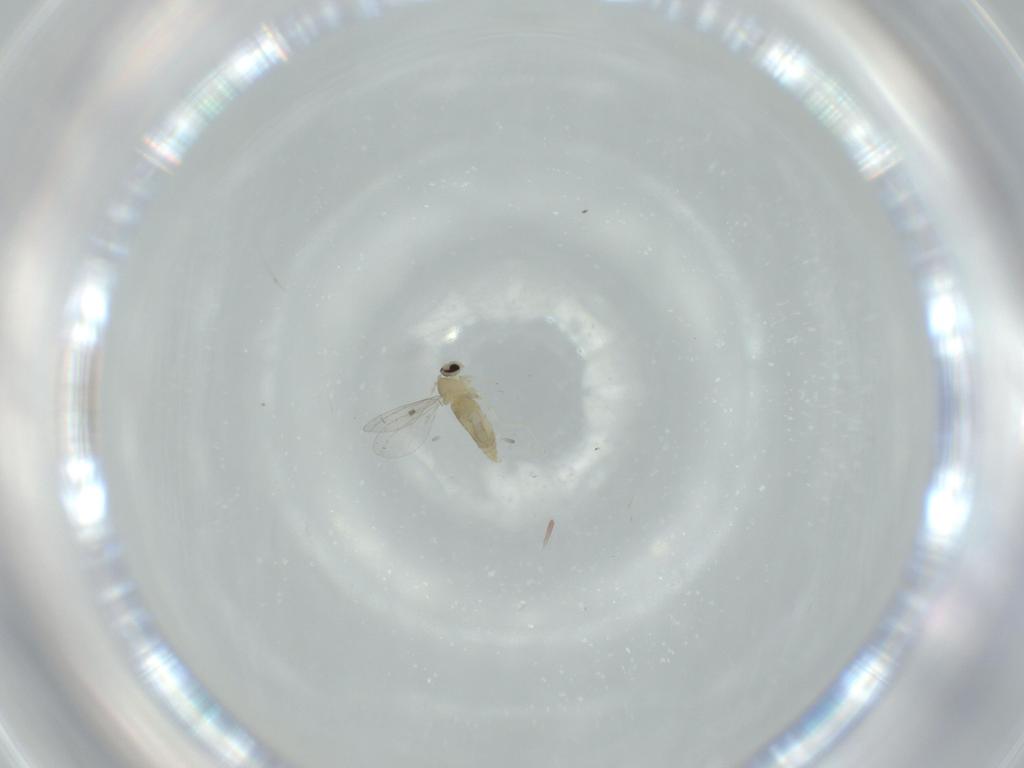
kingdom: Animalia
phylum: Arthropoda
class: Insecta
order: Diptera
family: Cecidomyiidae
